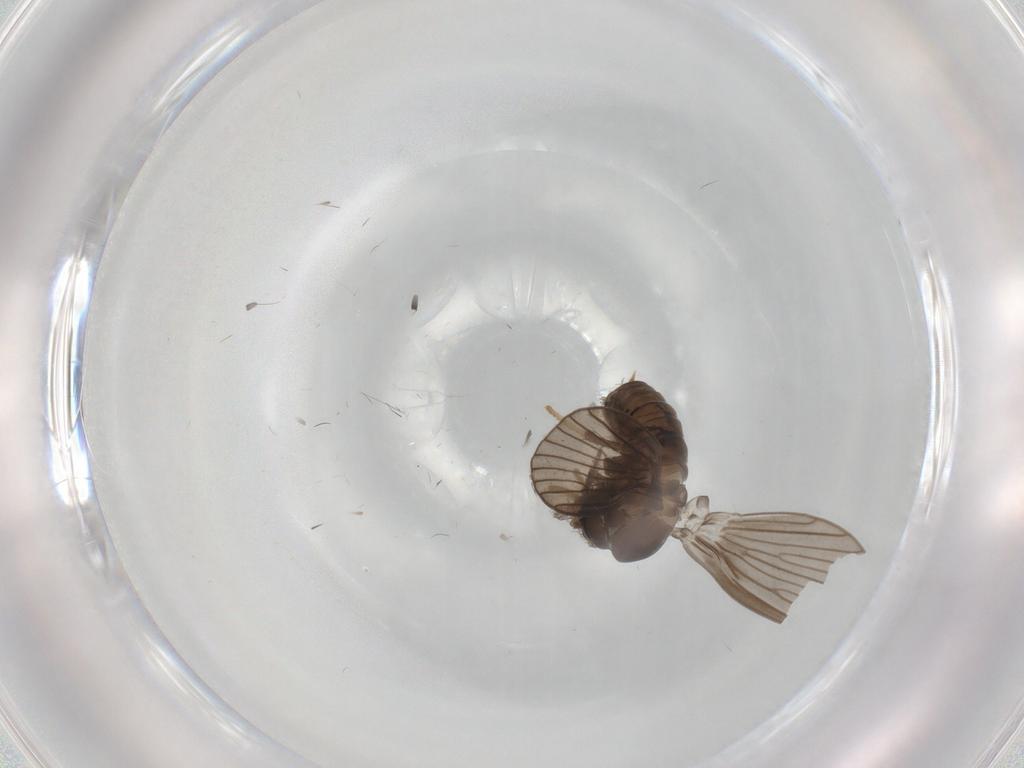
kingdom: Animalia
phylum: Arthropoda
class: Insecta
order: Diptera
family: Psychodidae
